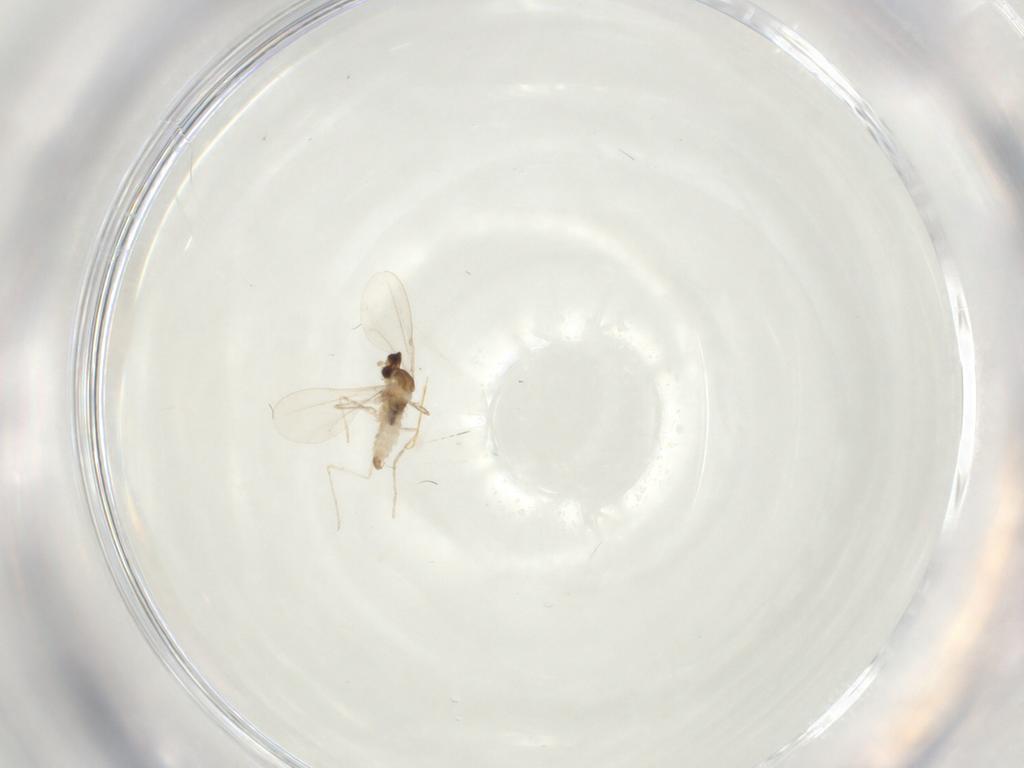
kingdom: Animalia
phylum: Arthropoda
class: Insecta
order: Diptera
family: Cecidomyiidae
